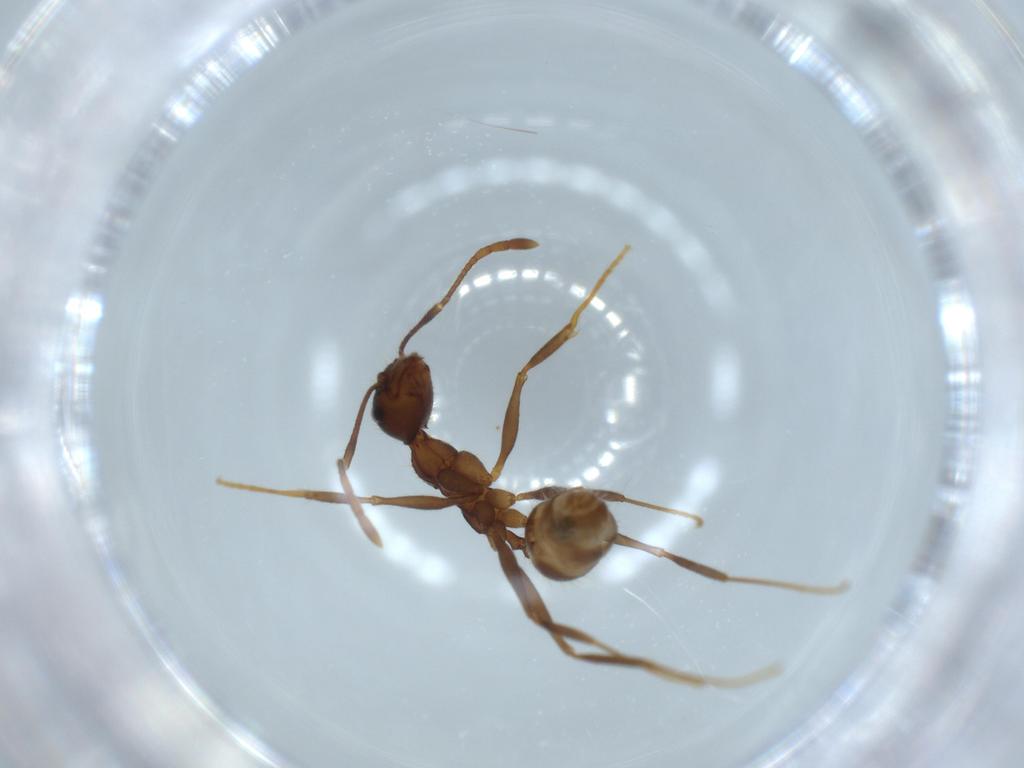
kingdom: Animalia
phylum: Arthropoda
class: Insecta
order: Hymenoptera
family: Formicidae
